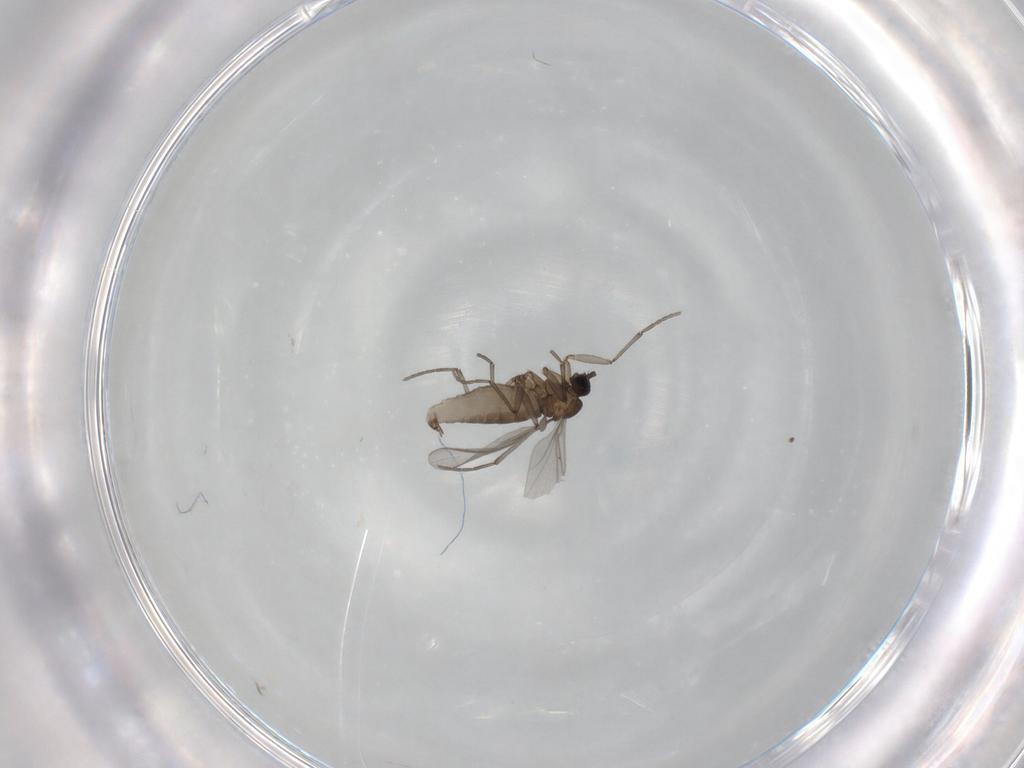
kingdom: Animalia
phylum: Arthropoda
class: Insecta
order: Diptera
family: Sciaridae
